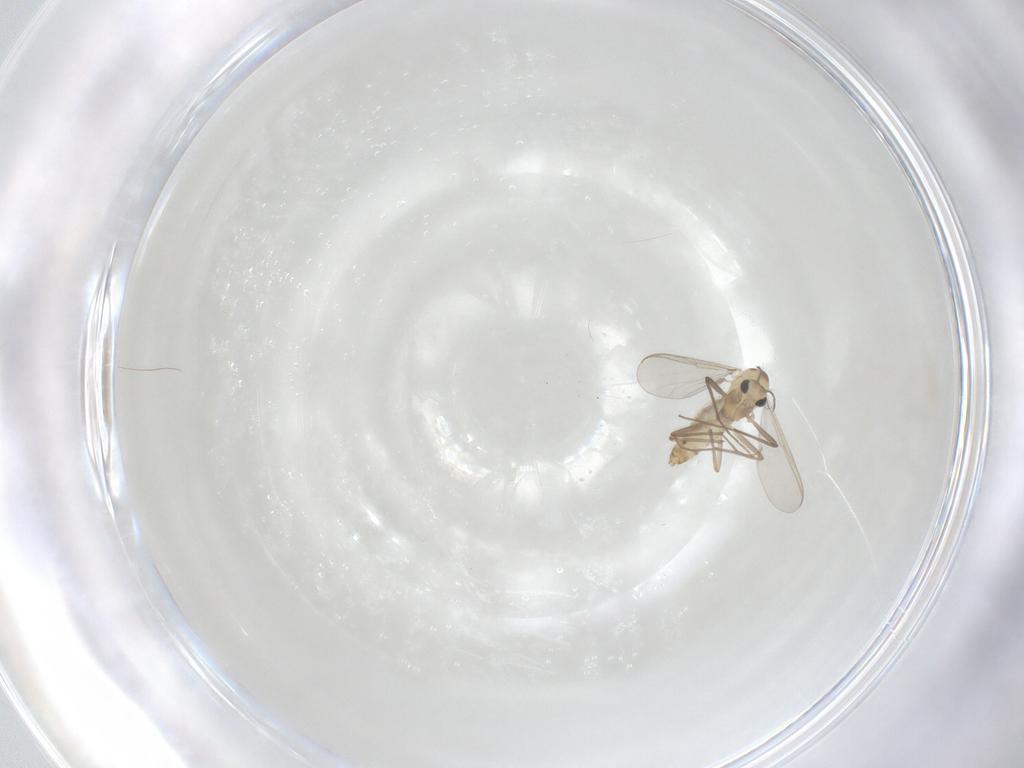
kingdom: Animalia
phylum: Arthropoda
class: Insecta
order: Diptera
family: Chironomidae
